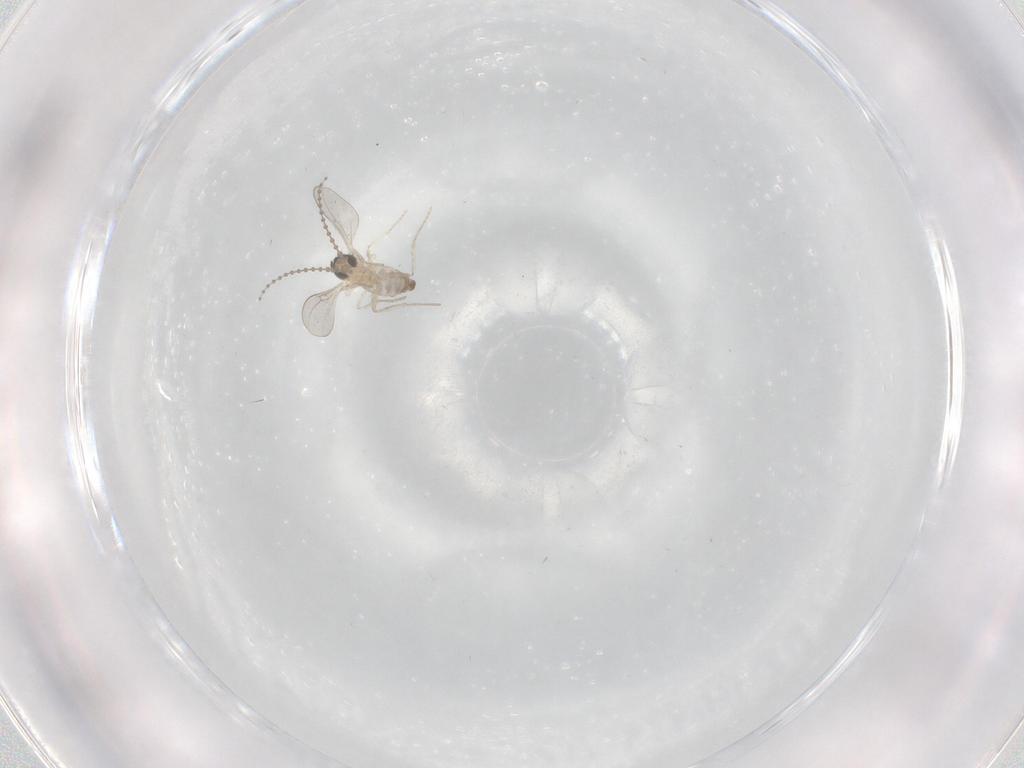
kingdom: Animalia
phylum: Arthropoda
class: Insecta
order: Diptera
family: Cecidomyiidae
